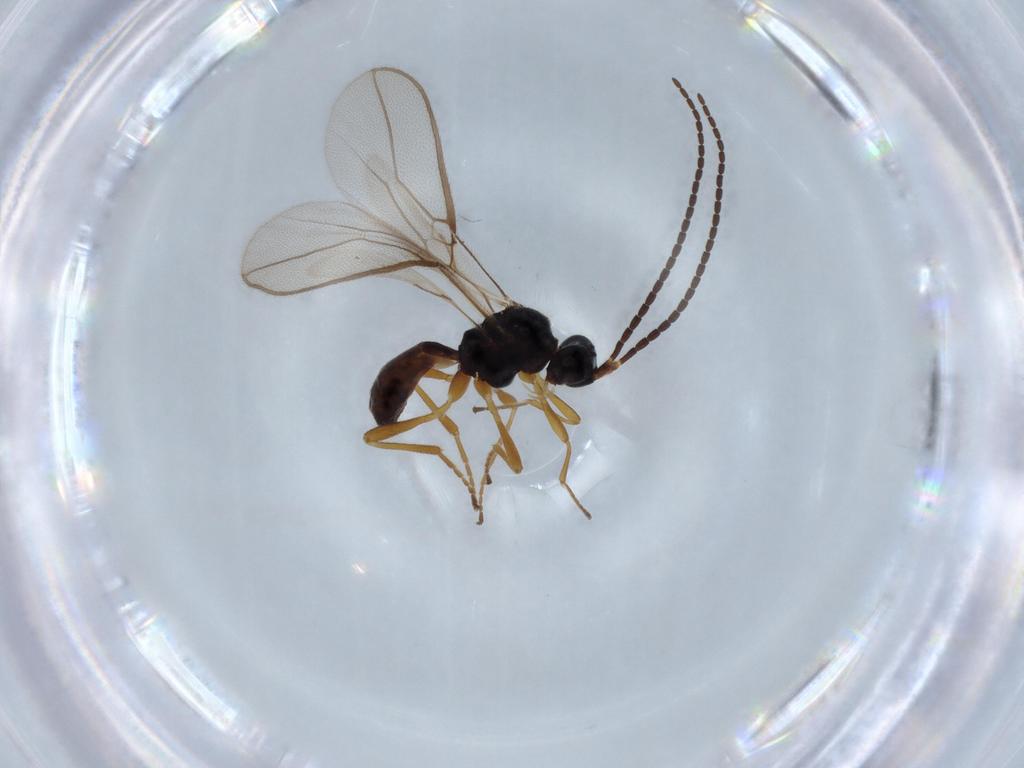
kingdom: Animalia
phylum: Arthropoda
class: Insecta
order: Hymenoptera
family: Braconidae
